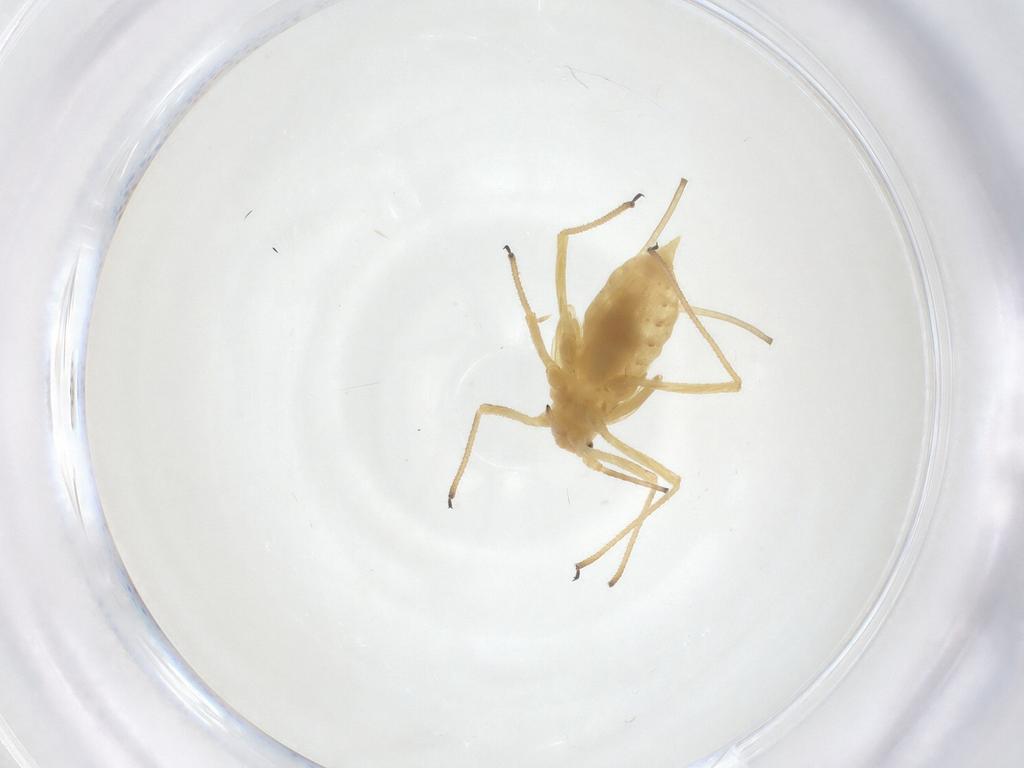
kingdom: Animalia
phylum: Arthropoda
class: Insecta
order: Hemiptera
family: Aphididae
